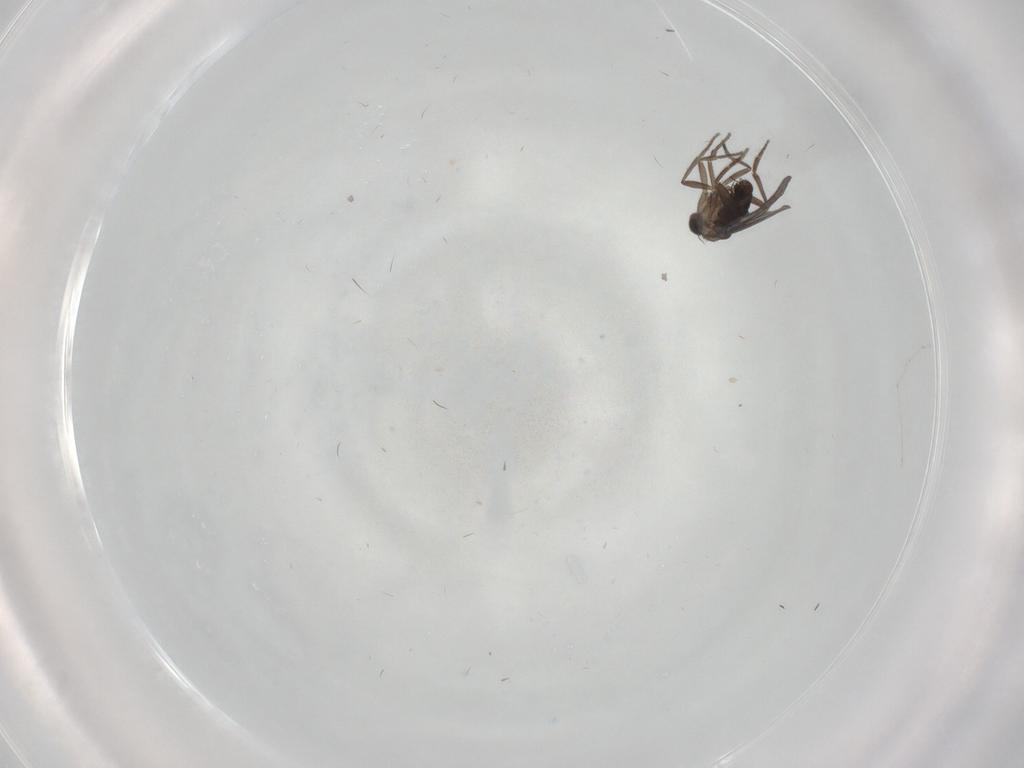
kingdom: Animalia
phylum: Arthropoda
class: Insecta
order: Diptera
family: Cecidomyiidae
